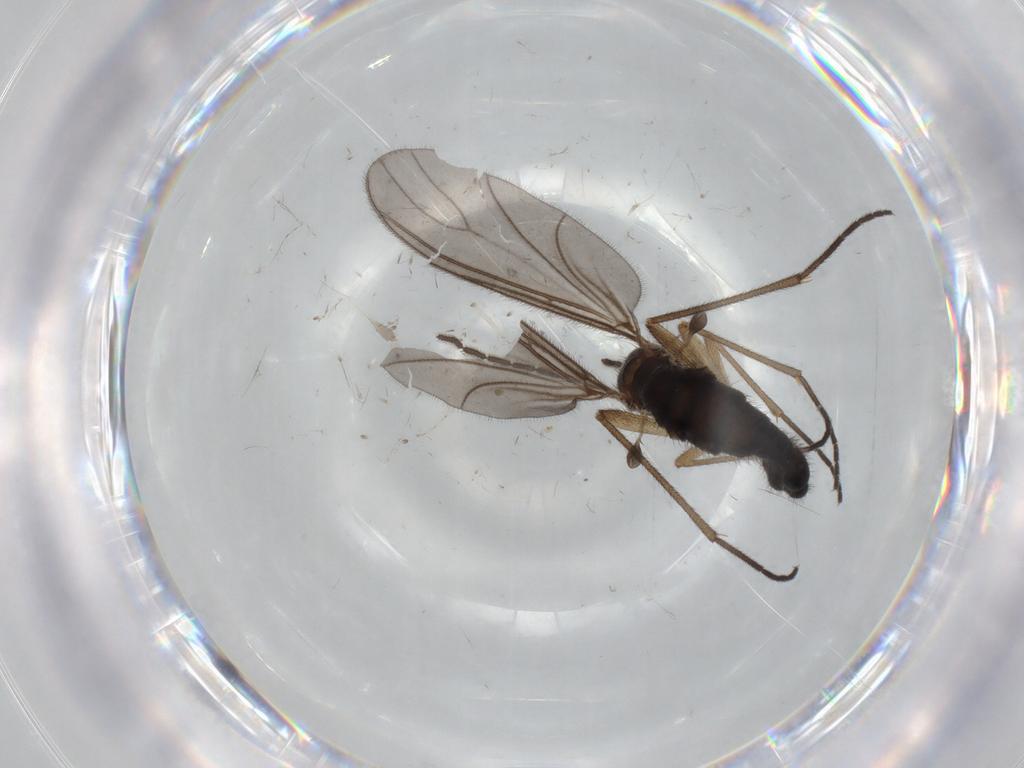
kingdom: Animalia
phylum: Arthropoda
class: Insecta
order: Diptera
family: Sciaridae
